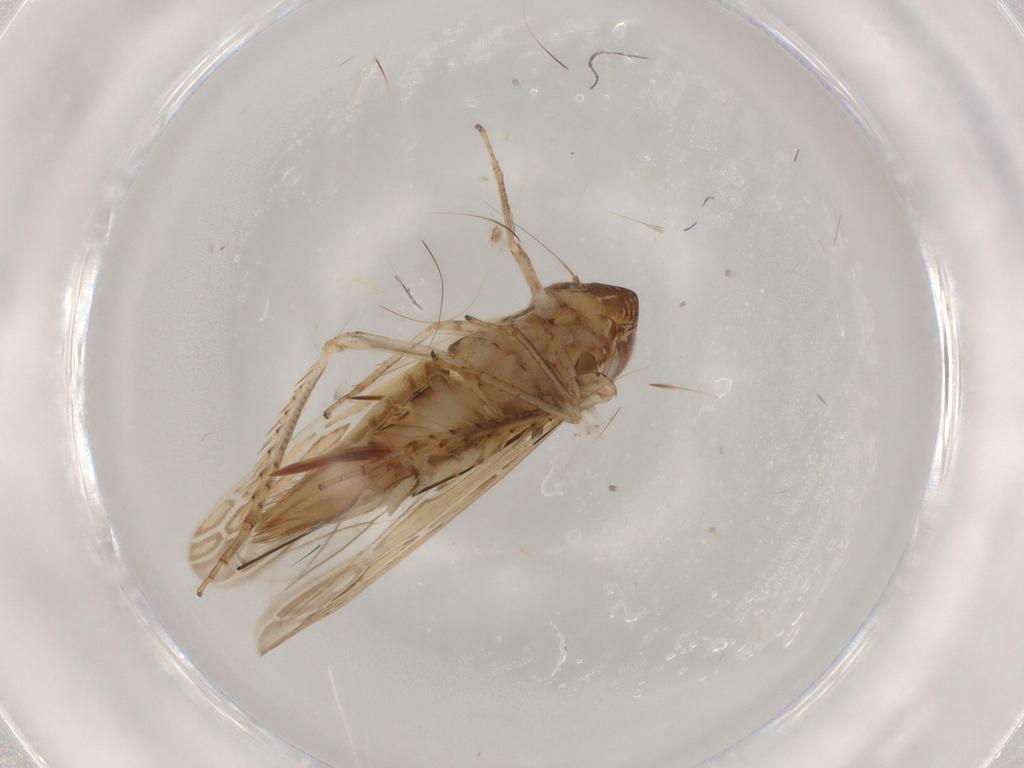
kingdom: Animalia
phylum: Arthropoda
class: Insecta
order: Hemiptera
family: Cicadellidae
